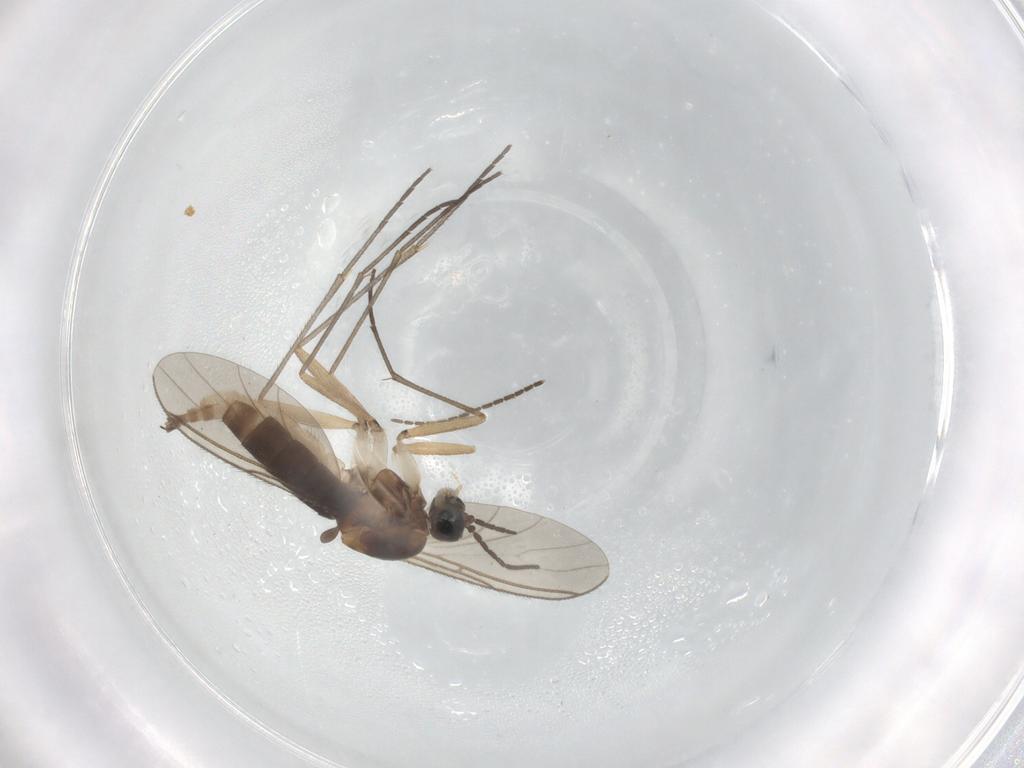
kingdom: Animalia
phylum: Arthropoda
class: Insecta
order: Diptera
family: Sciaridae
